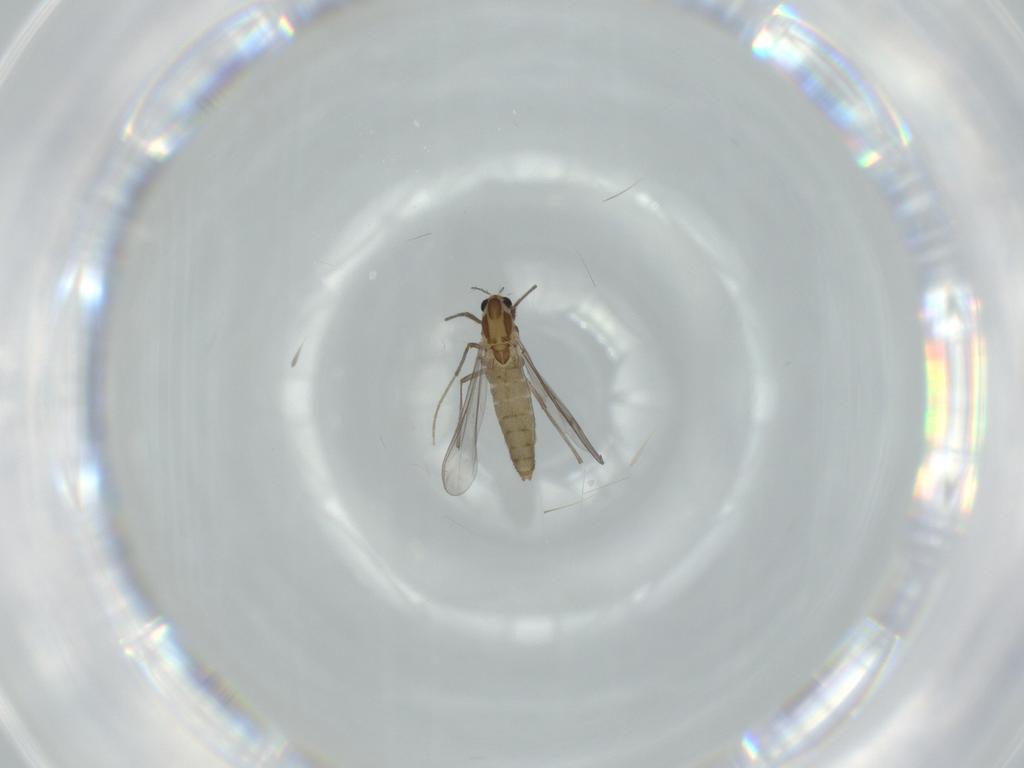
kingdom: Animalia
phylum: Arthropoda
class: Insecta
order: Diptera
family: Chironomidae
